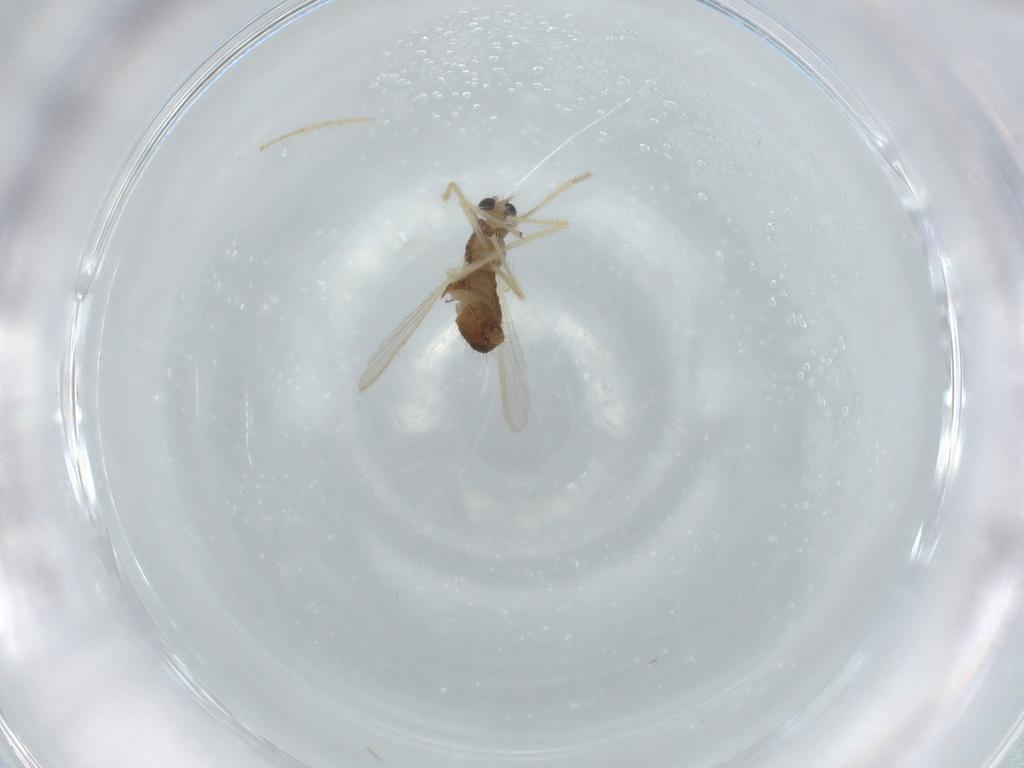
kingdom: Animalia
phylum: Arthropoda
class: Insecta
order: Diptera
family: Chironomidae
